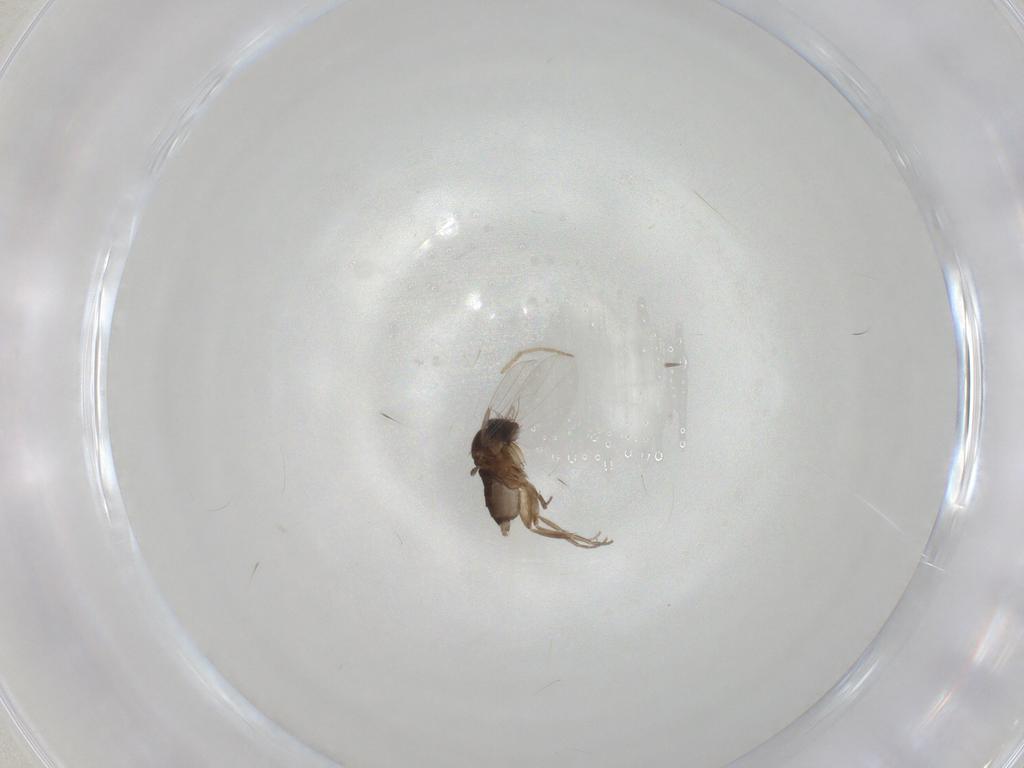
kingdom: Animalia
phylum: Arthropoda
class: Insecta
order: Diptera
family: Phoridae
